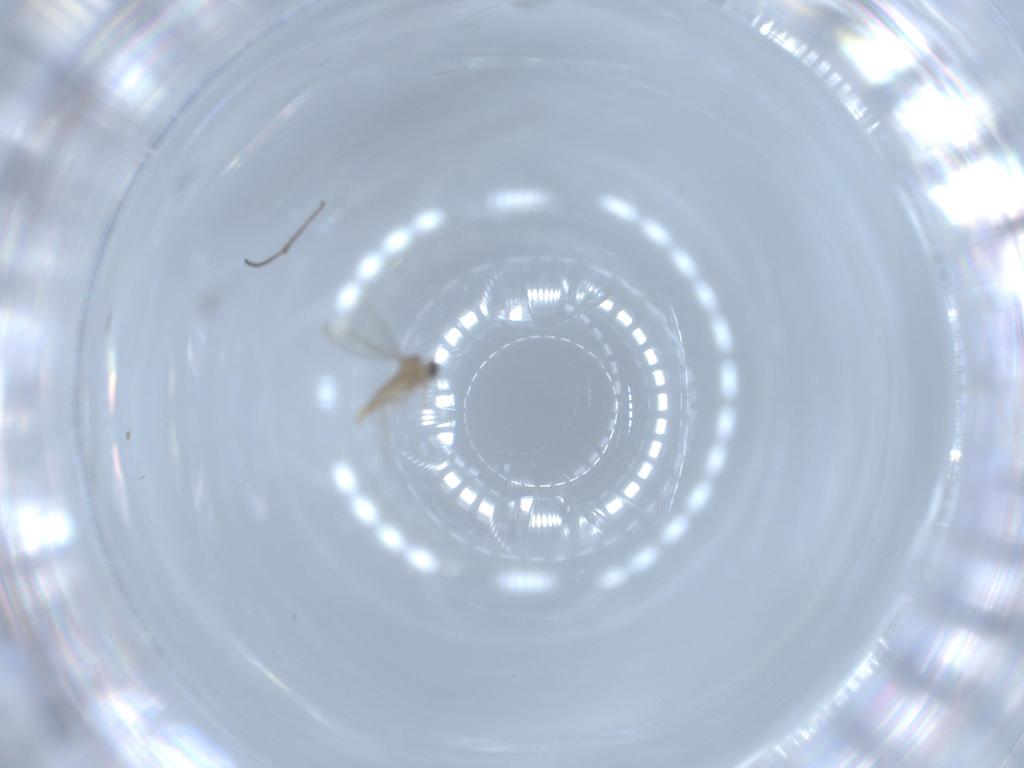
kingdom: Animalia
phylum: Arthropoda
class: Insecta
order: Diptera
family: Cecidomyiidae
